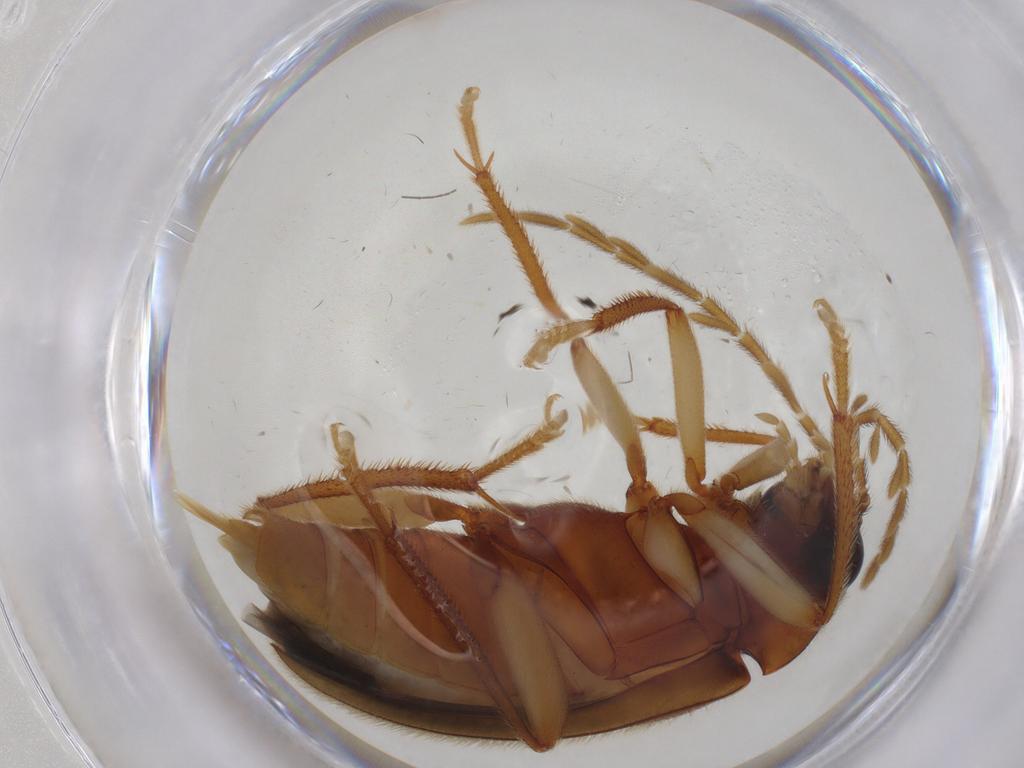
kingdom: Animalia
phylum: Arthropoda
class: Insecta
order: Coleoptera
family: Ptilodactylidae
